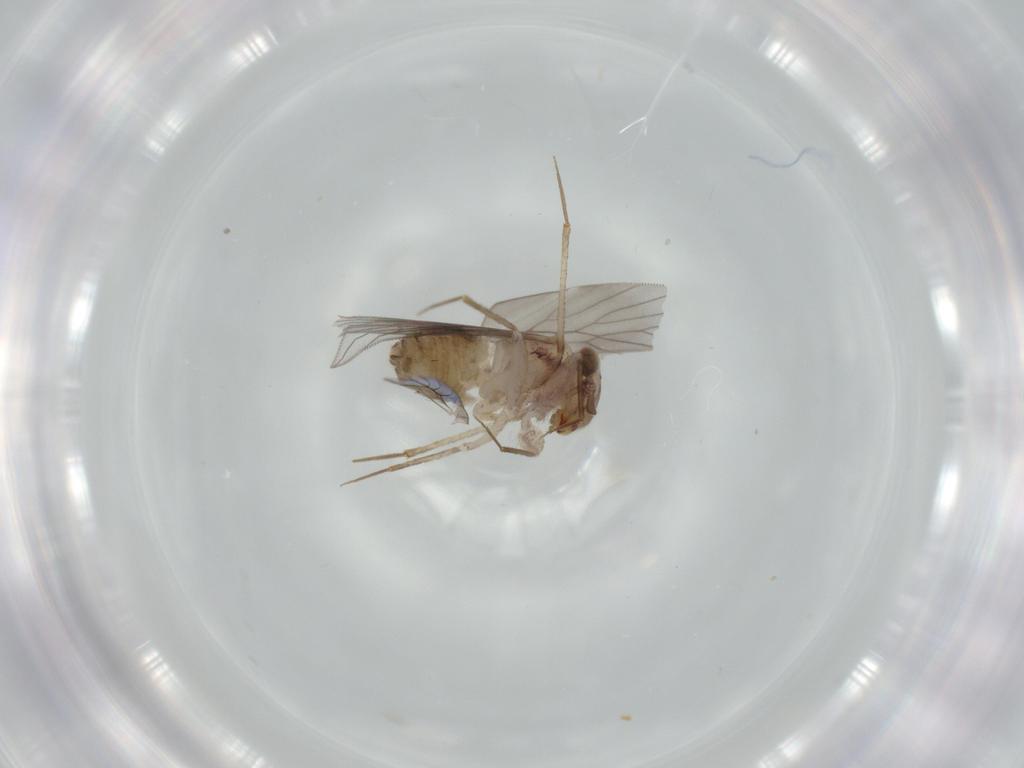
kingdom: Animalia
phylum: Arthropoda
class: Insecta
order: Psocodea
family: Lepidopsocidae
